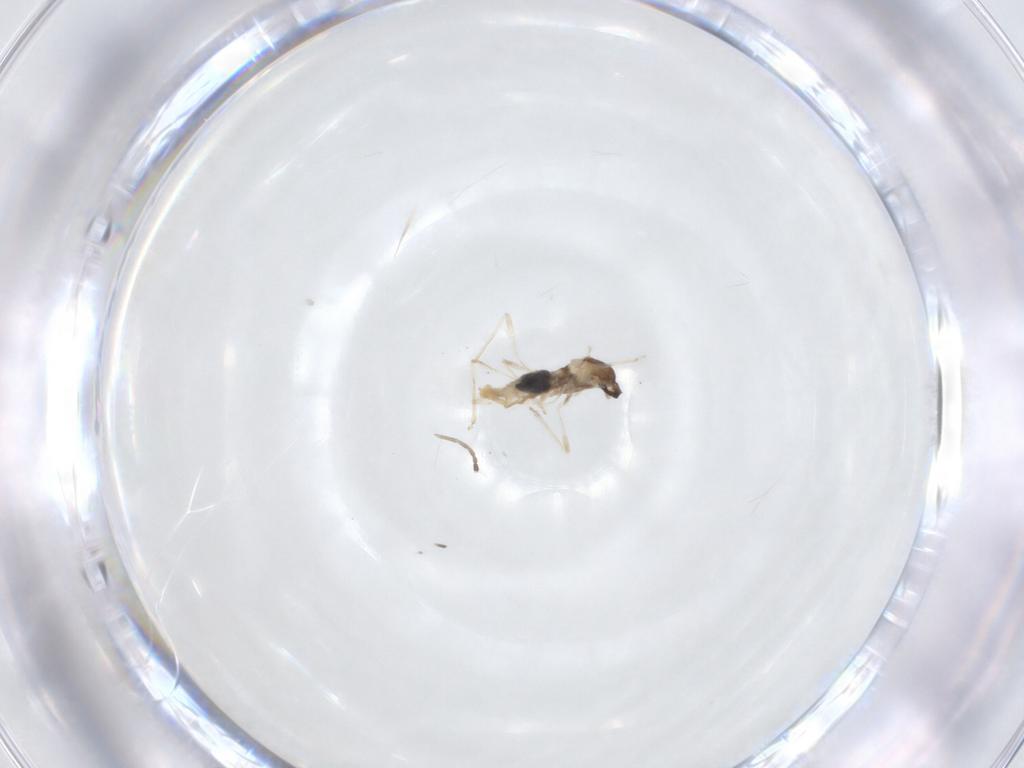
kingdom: Animalia
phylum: Arthropoda
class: Insecta
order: Diptera
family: Cecidomyiidae
